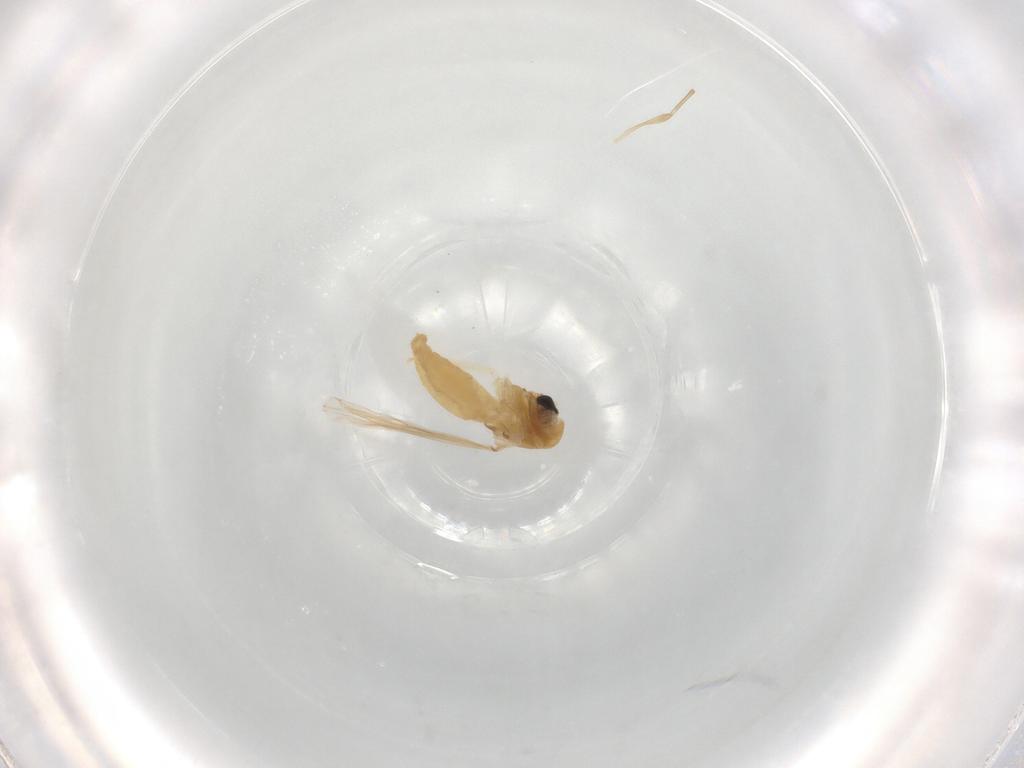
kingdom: Animalia
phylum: Arthropoda
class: Insecta
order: Diptera
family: Chironomidae
